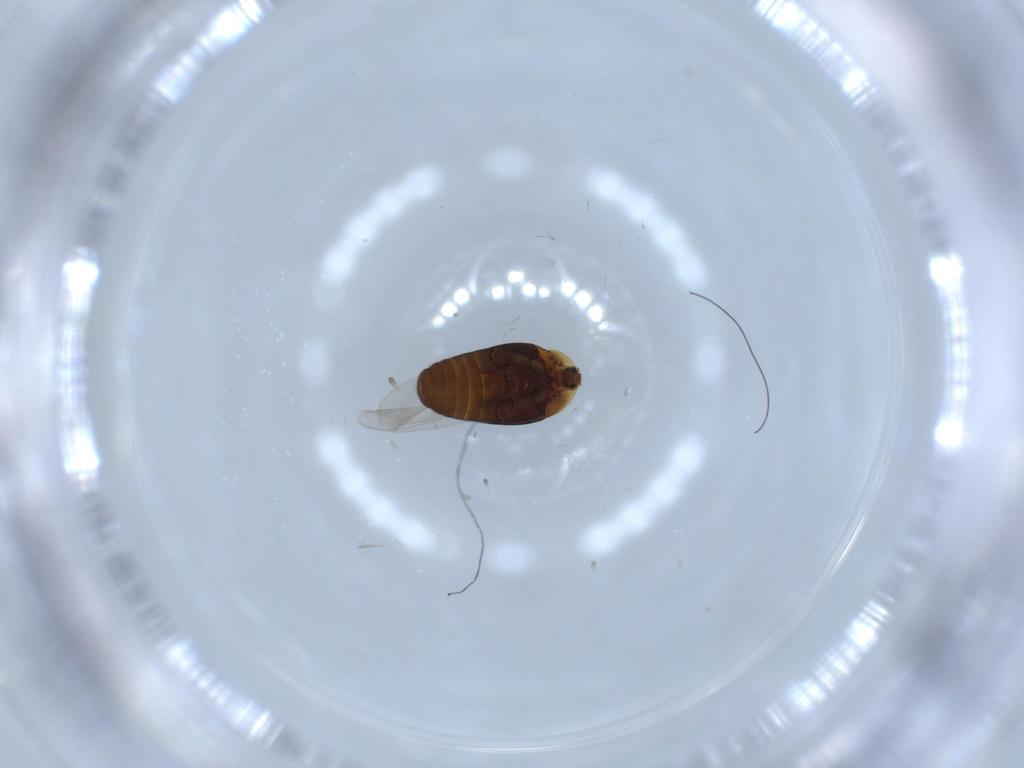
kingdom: Animalia
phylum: Arthropoda
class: Insecta
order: Coleoptera
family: Corylophidae
